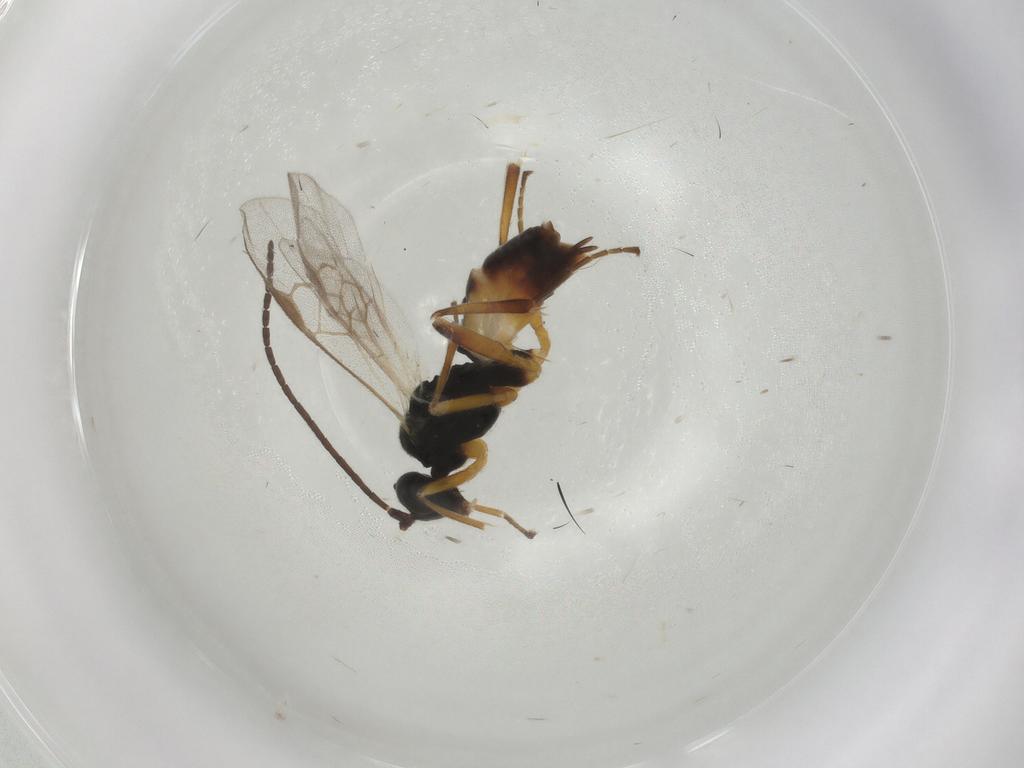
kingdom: Animalia
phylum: Arthropoda
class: Insecta
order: Hymenoptera
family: Braconidae
